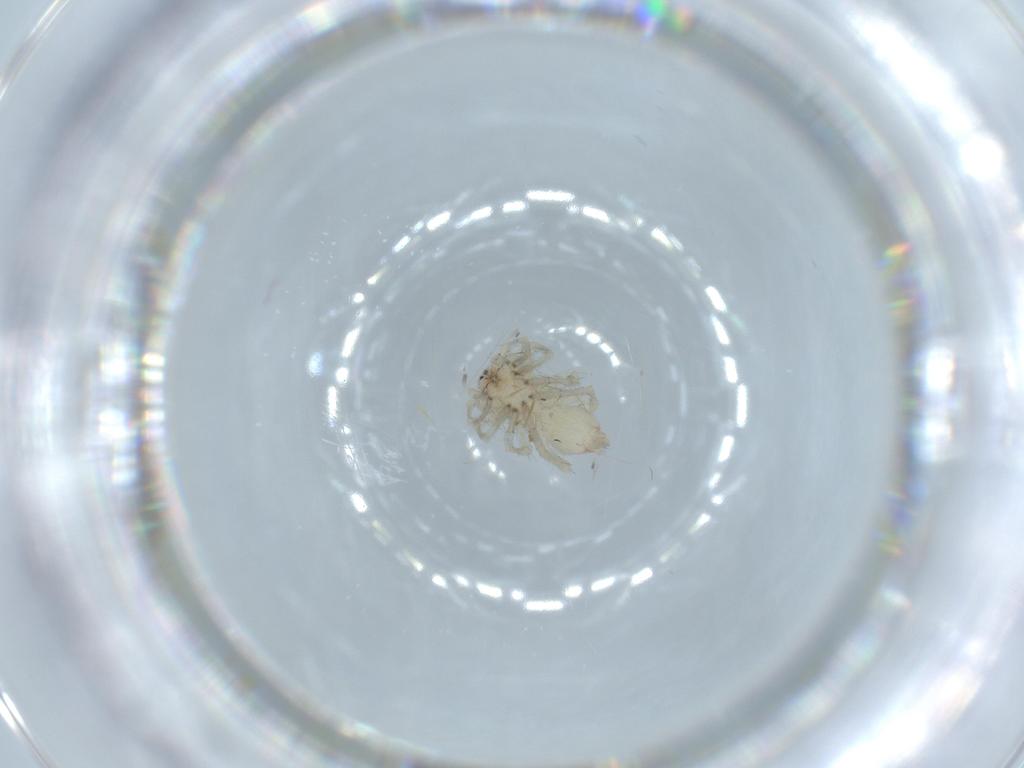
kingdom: Animalia
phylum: Arthropoda
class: Arachnida
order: Araneae
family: Clubionidae
